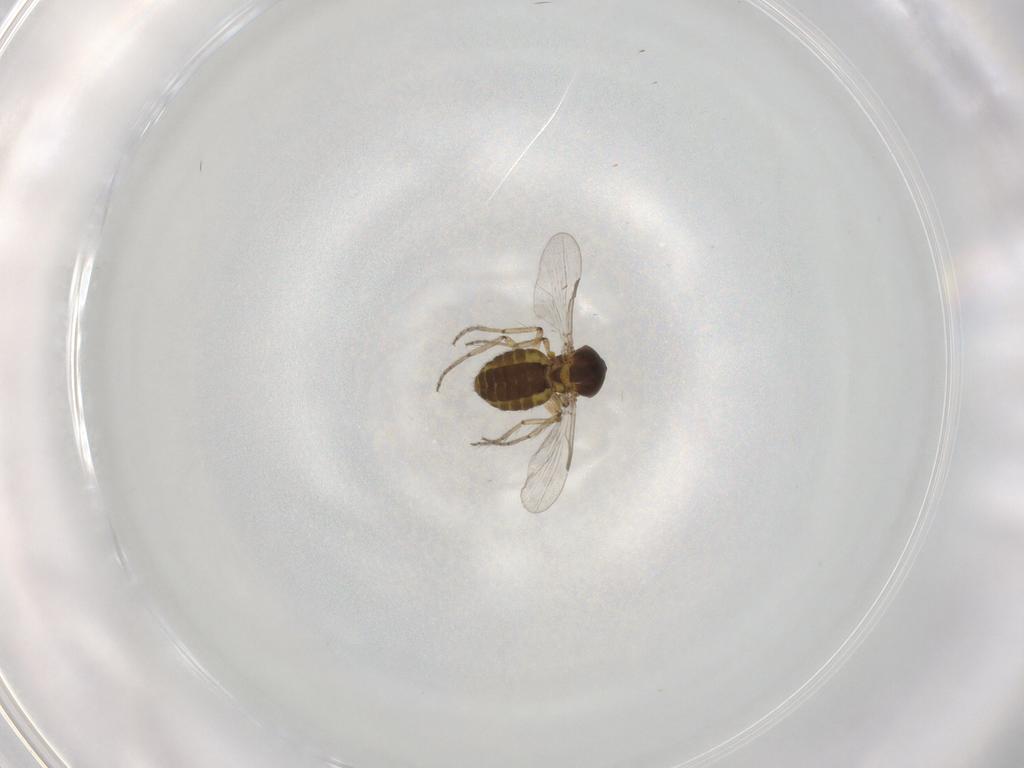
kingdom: Animalia
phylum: Arthropoda
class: Insecta
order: Diptera
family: Ceratopogonidae
